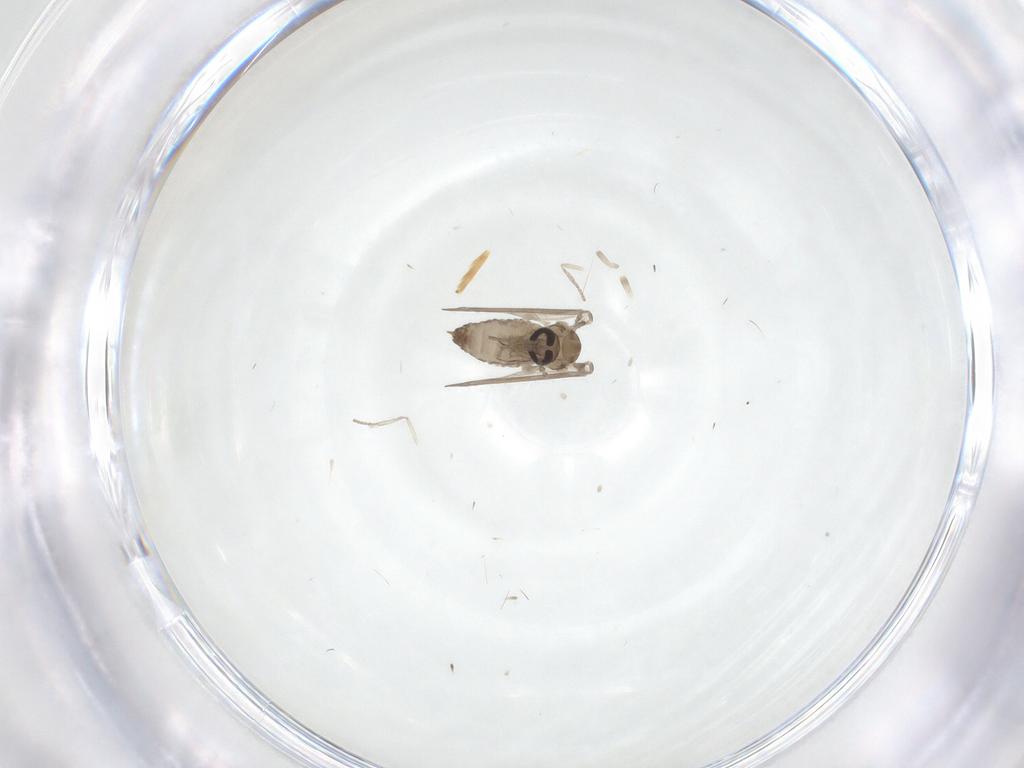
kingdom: Animalia
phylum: Arthropoda
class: Insecta
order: Diptera
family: Psychodidae
